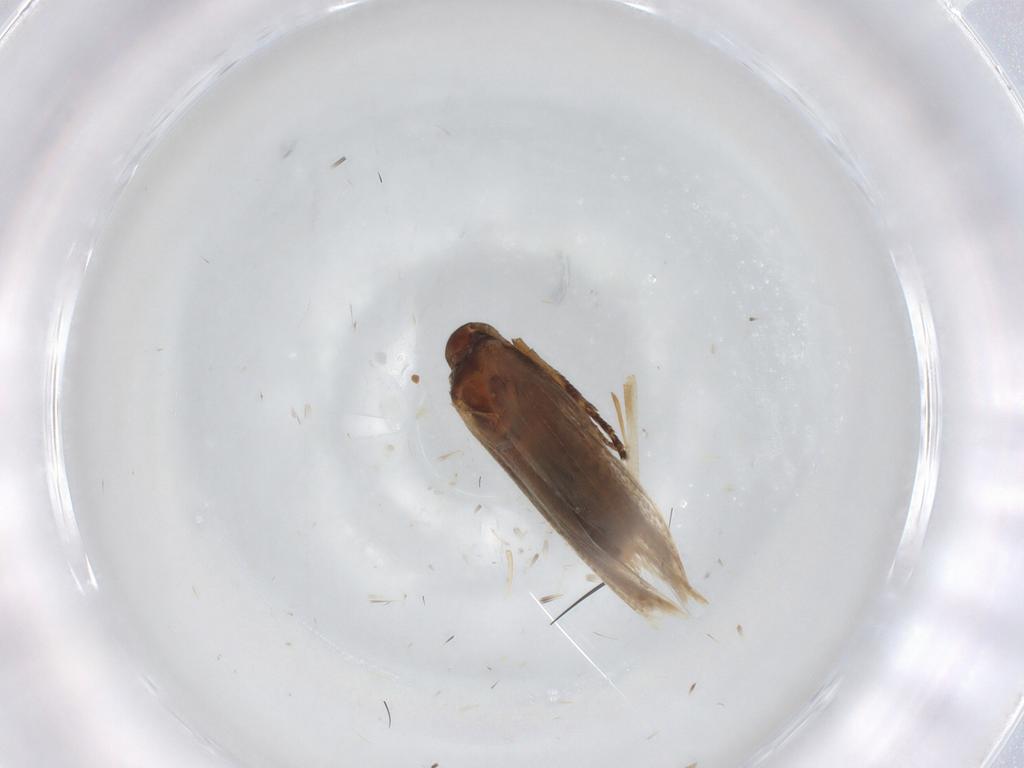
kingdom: Animalia
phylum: Arthropoda
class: Insecta
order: Lepidoptera
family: Gelechiidae
